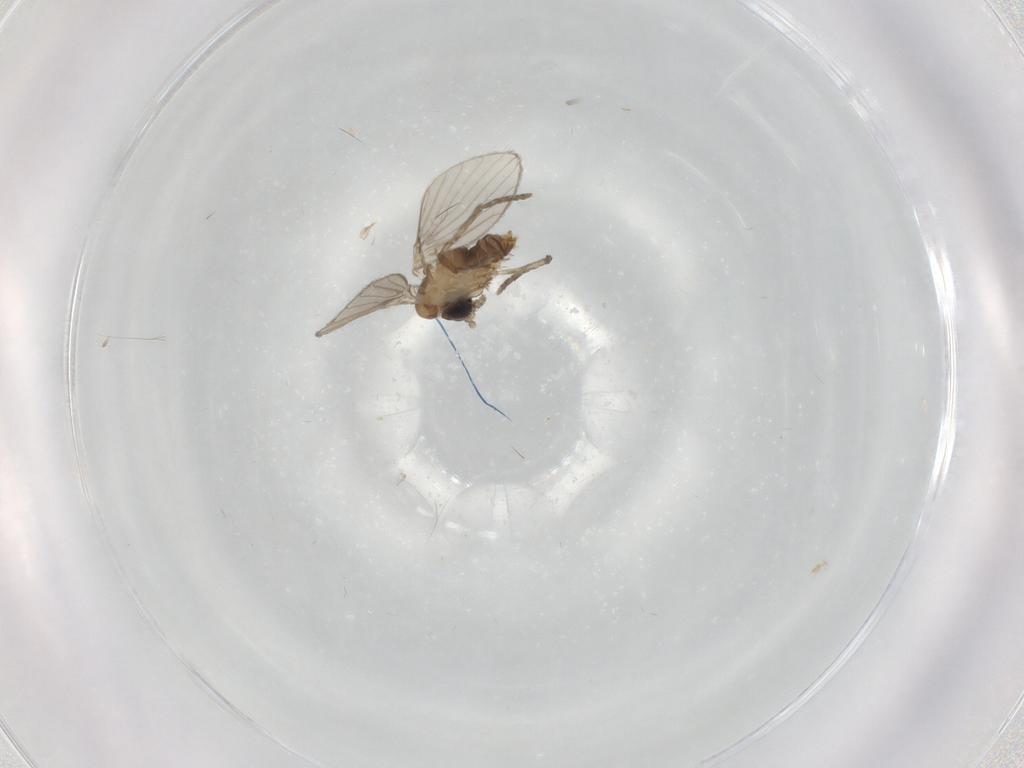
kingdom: Animalia
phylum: Arthropoda
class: Insecta
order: Diptera
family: Psychodidae
